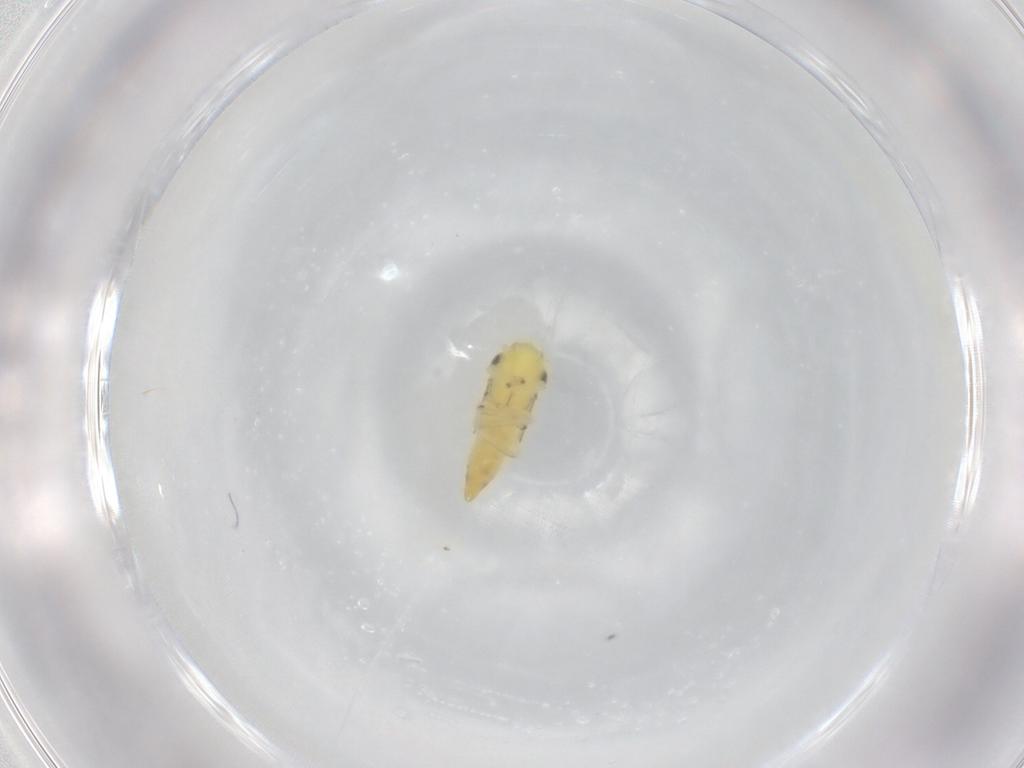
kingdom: Animalia
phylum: Arthropoda
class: Insecta
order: Hemiptera
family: Cicadellidae
